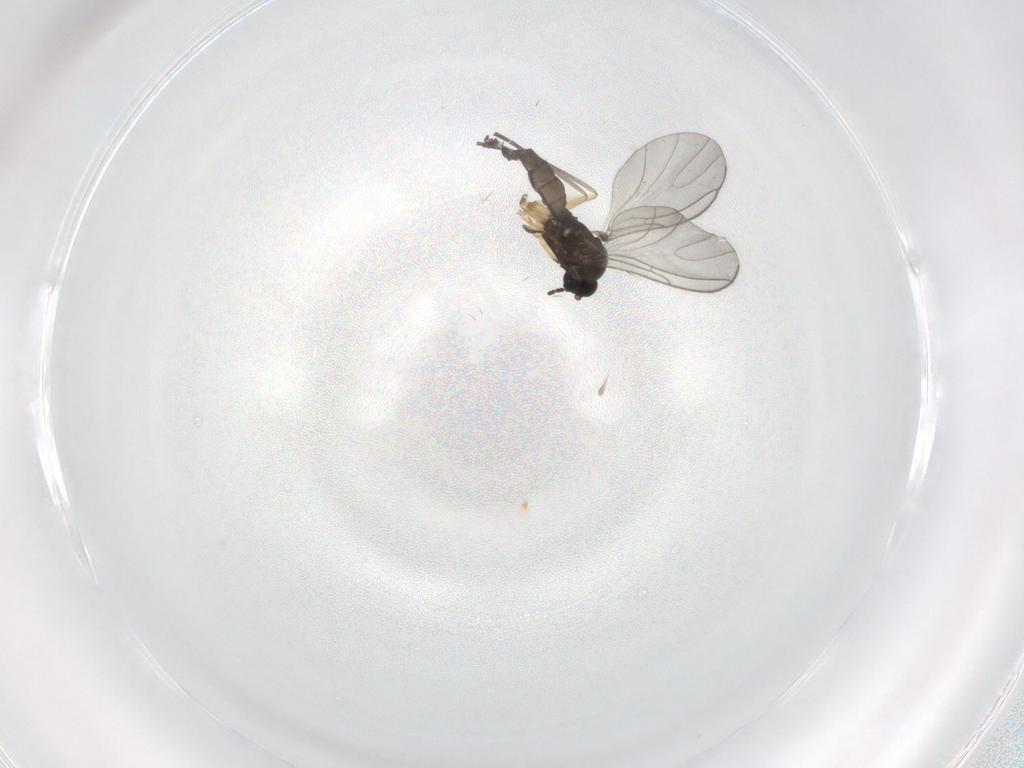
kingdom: Animalia
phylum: Arthropoda
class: Insecta
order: Diptera
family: Sciaridae
